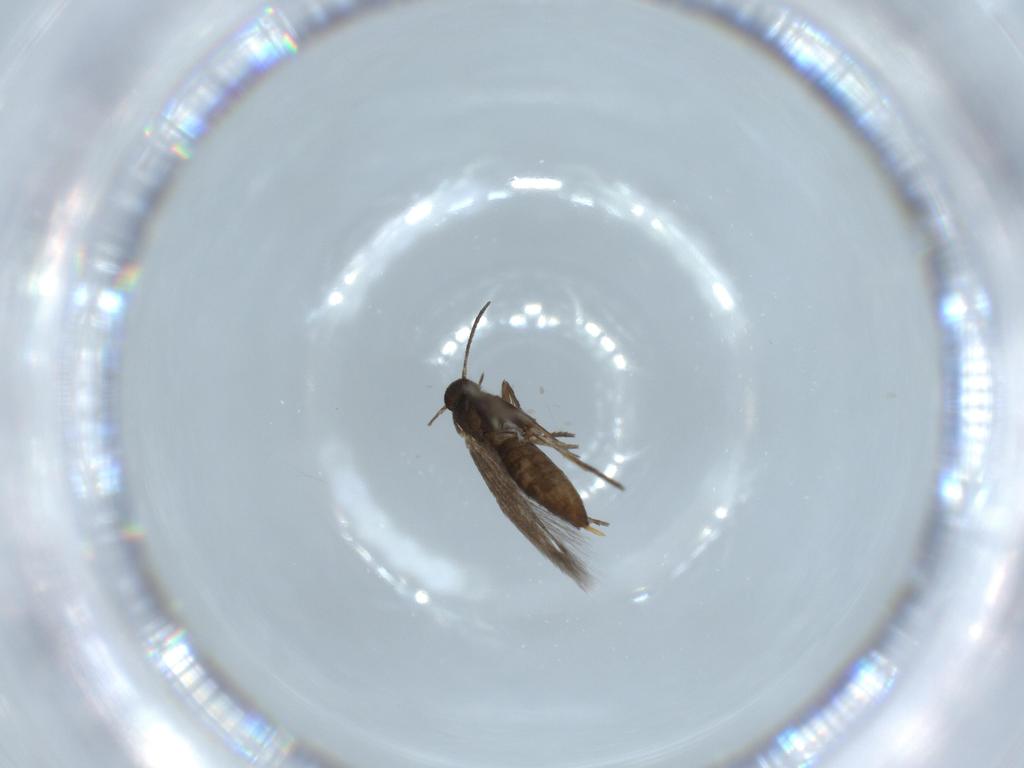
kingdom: Animalia
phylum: Arthropoda
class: Insecta
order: Lepidoptera
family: Heliozelidae
